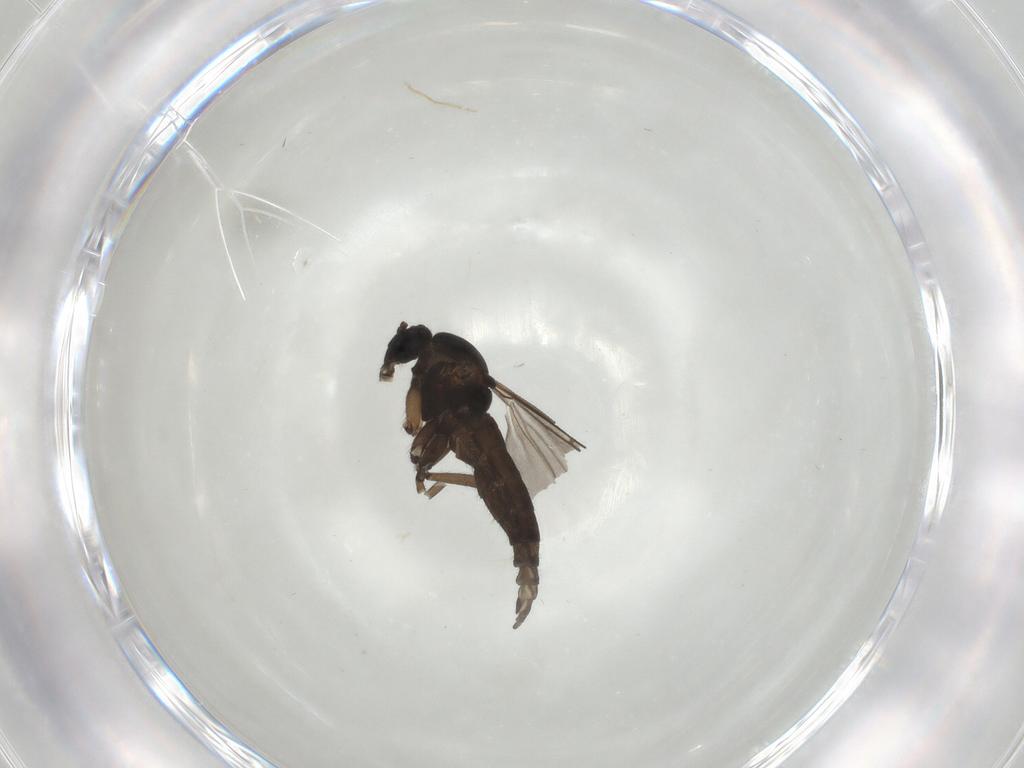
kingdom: Animalia
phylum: Arthropoda
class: Insecta
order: Diptera
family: Sciaridae
